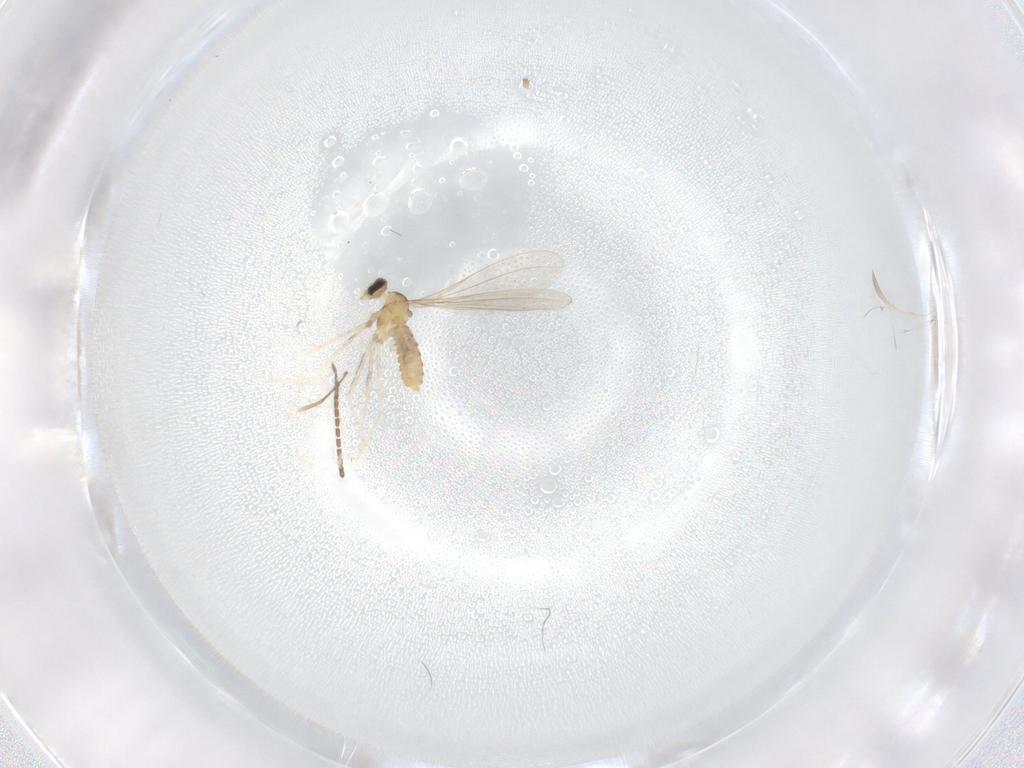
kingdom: Animalia
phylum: Arthropoda
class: Insecta
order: Diptera
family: Cecidomyiidae
